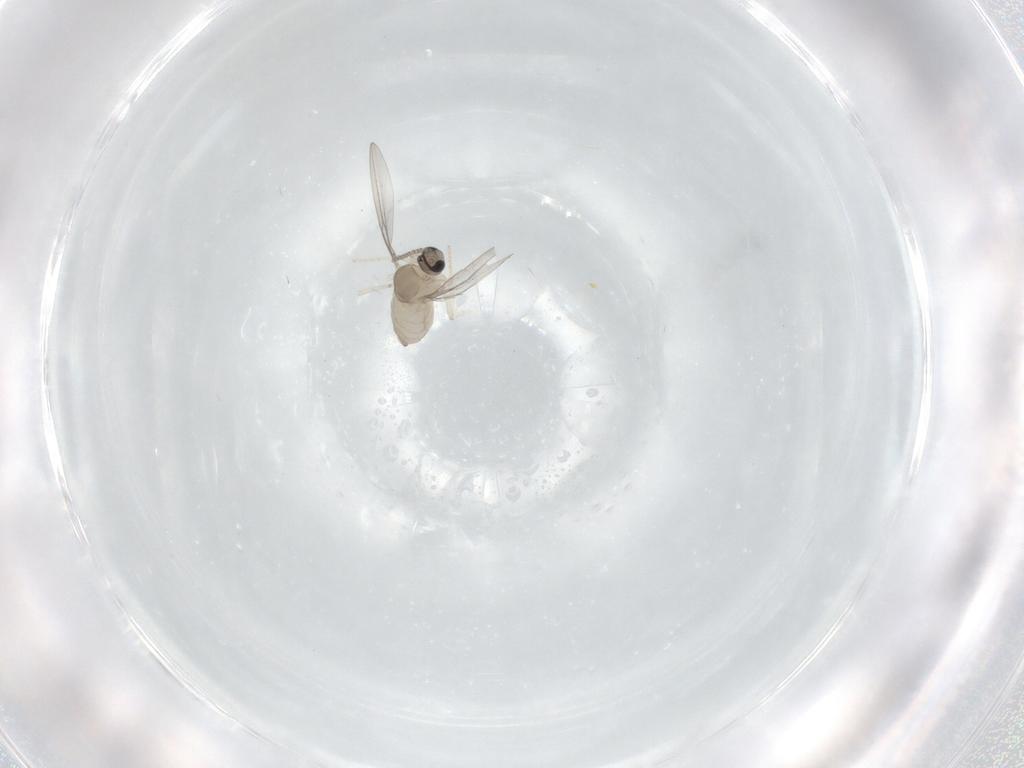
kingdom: Animalia
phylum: Arthropoda
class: Insecta
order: Diptera
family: Cecidomyiidae
